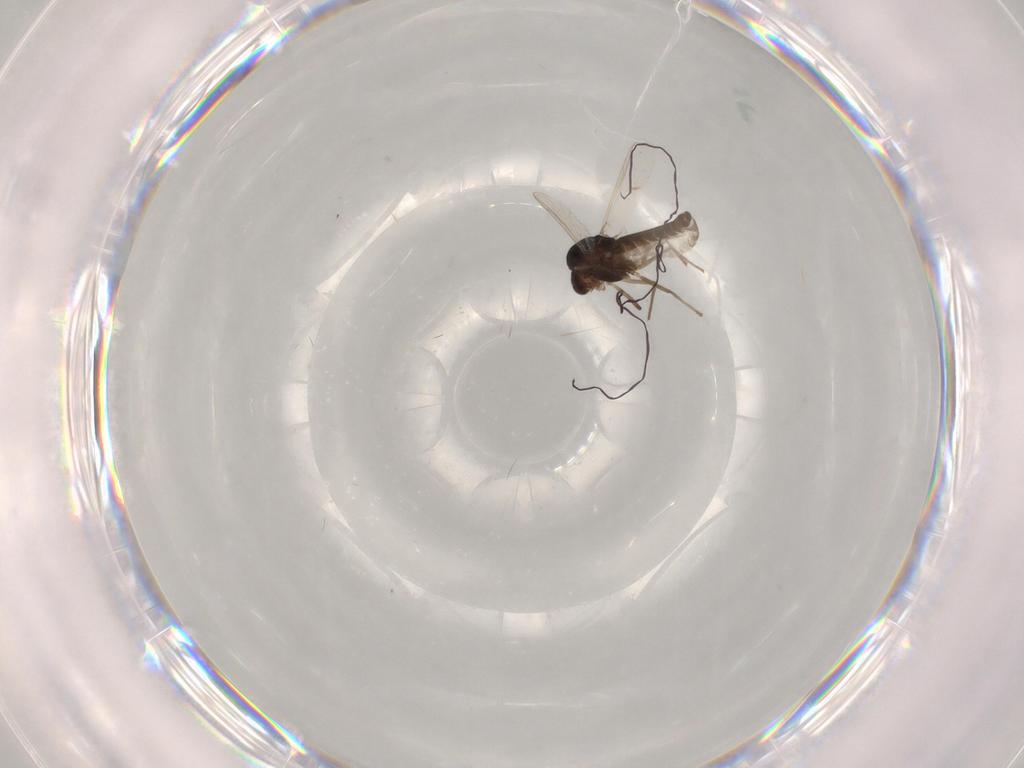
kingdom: Animalia
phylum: Arthropoda
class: Insecta
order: Diptera
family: Chironomidae
